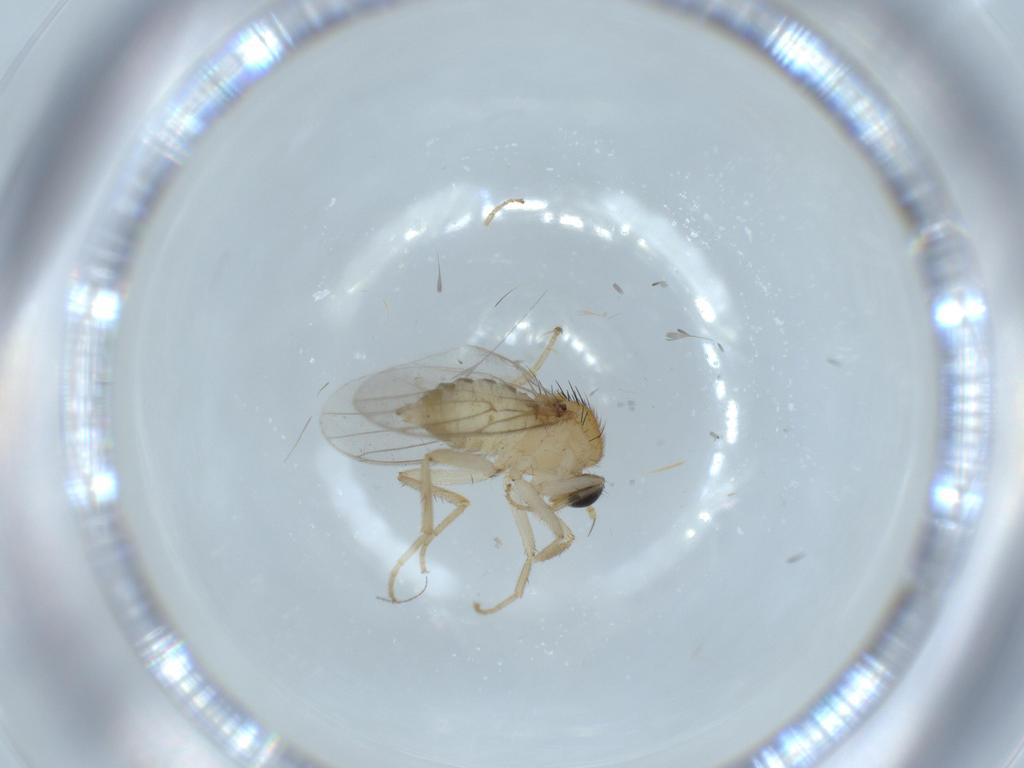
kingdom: Animalia
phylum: Arthropoda
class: Insecta
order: Diptera
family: Hybotidae
